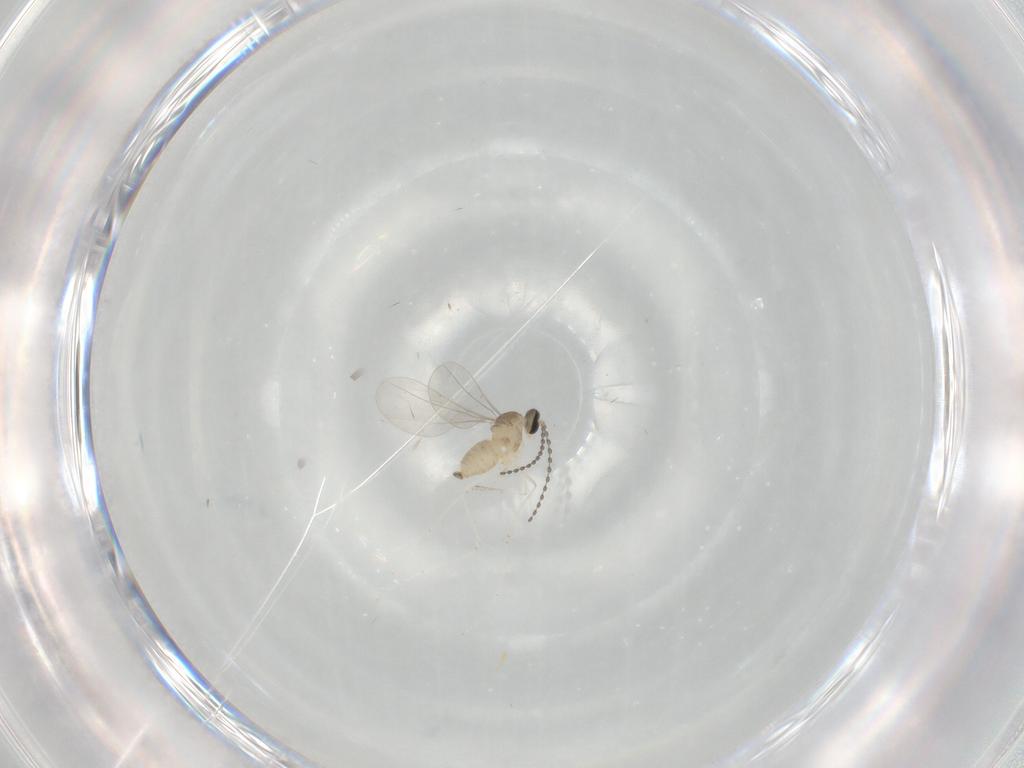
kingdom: Animalia
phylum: Arthropoda
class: Insecta
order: Diptera
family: Cecidomyiidae
